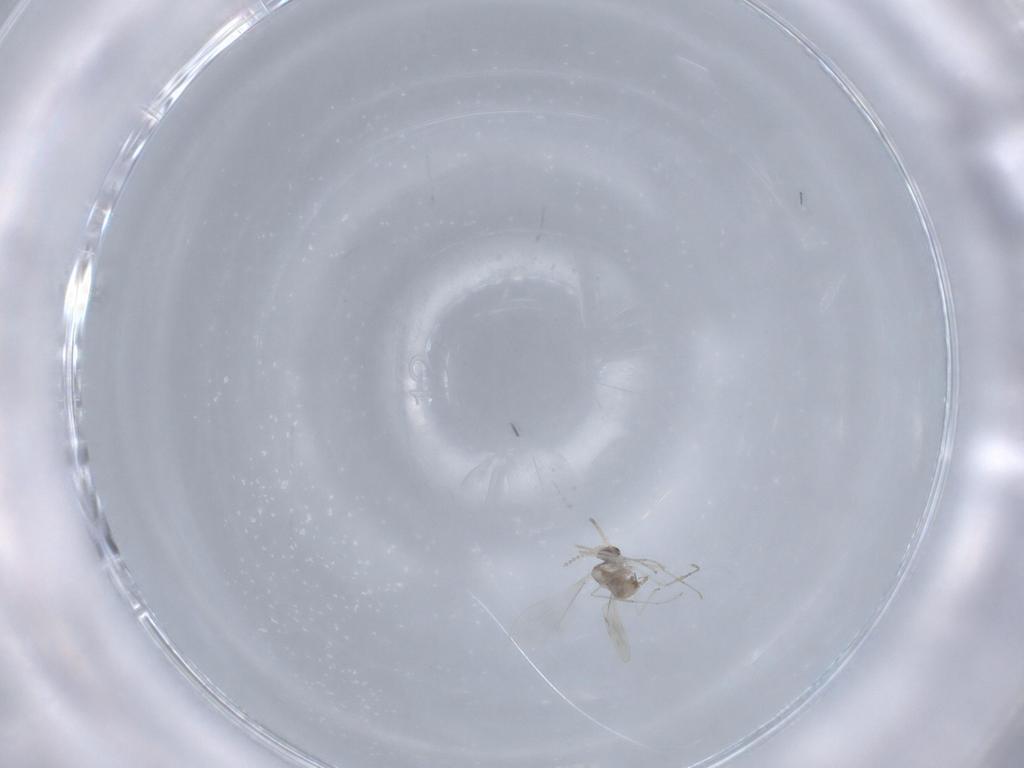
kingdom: Animalia
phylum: Arthropoda
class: Insecta
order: Diptera
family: Cecidomyiidae
